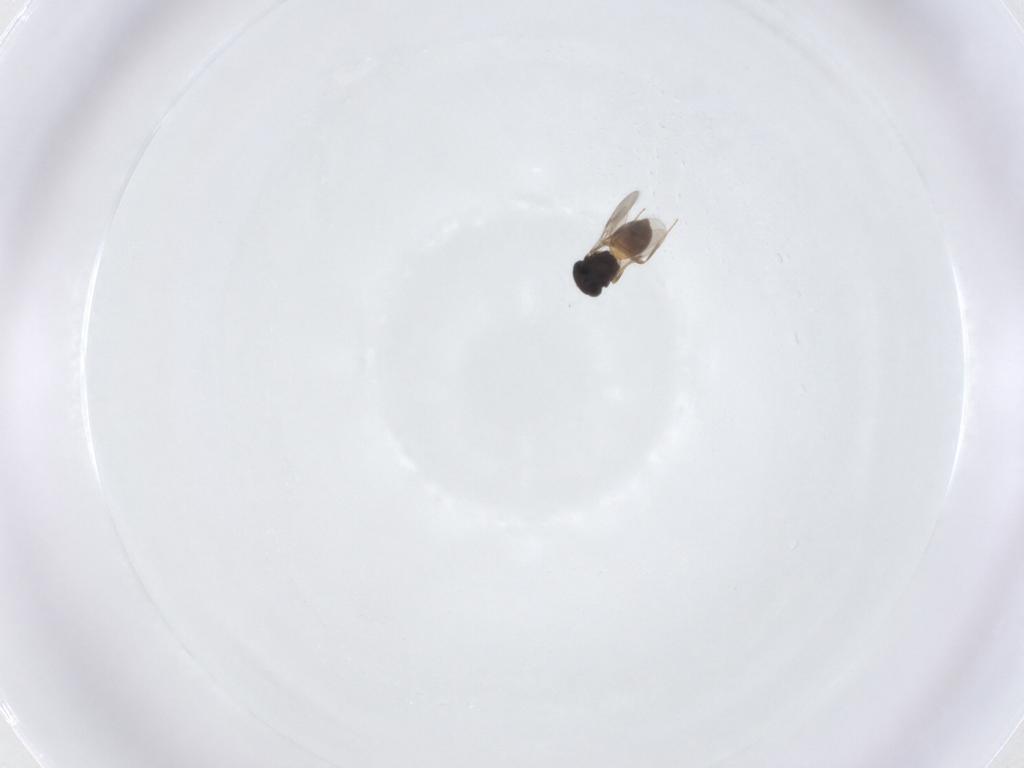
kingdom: Animalia
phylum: Arthropoda
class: Insecta
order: Hymenoptera
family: Scelionidae
